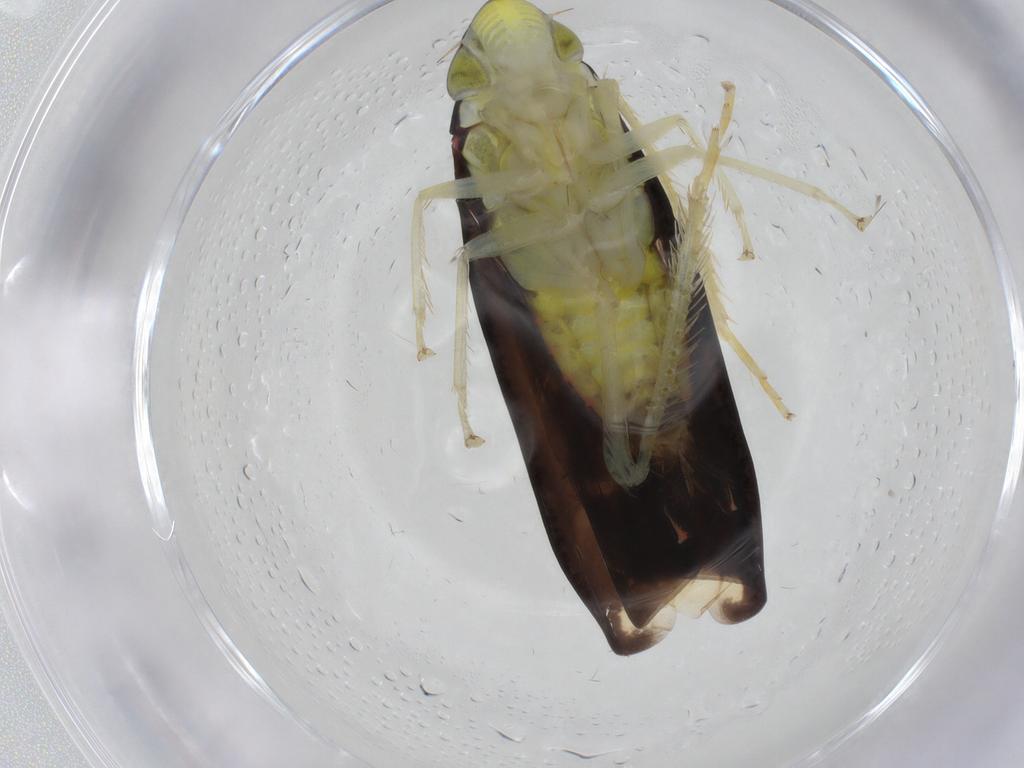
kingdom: Animalia
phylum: Arthropoda
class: Insecta
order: Hemiptera
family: Cicadellidae
